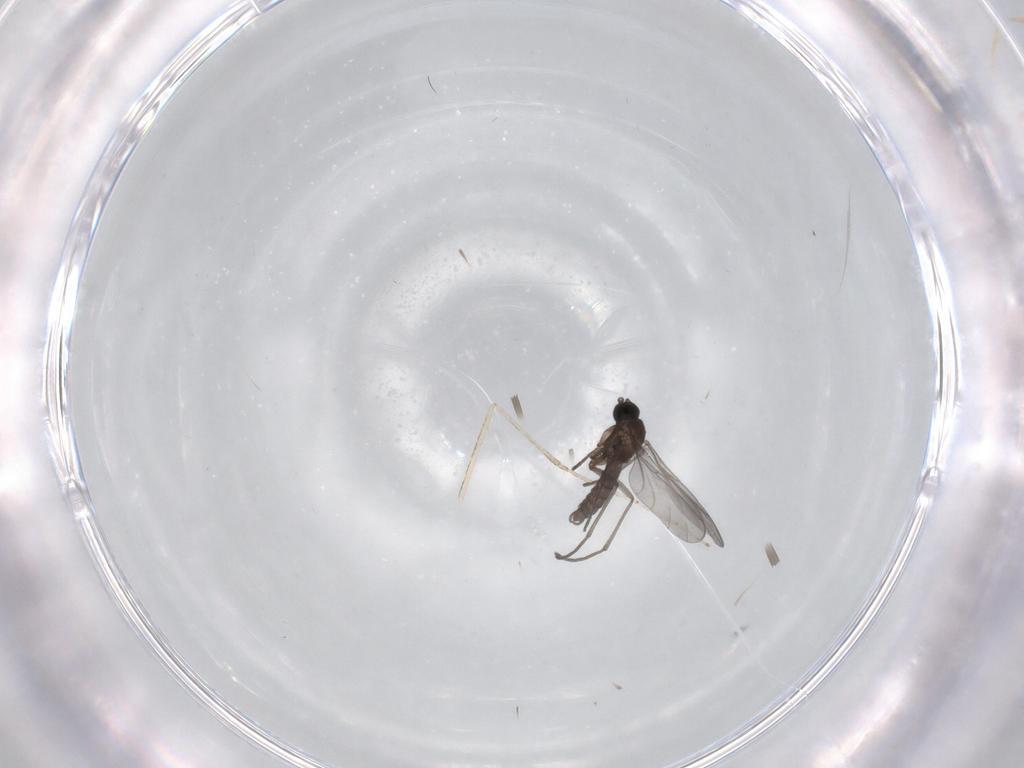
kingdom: Animalia
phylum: Arthropoda
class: Insecta
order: Diptera
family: Sciaridae
